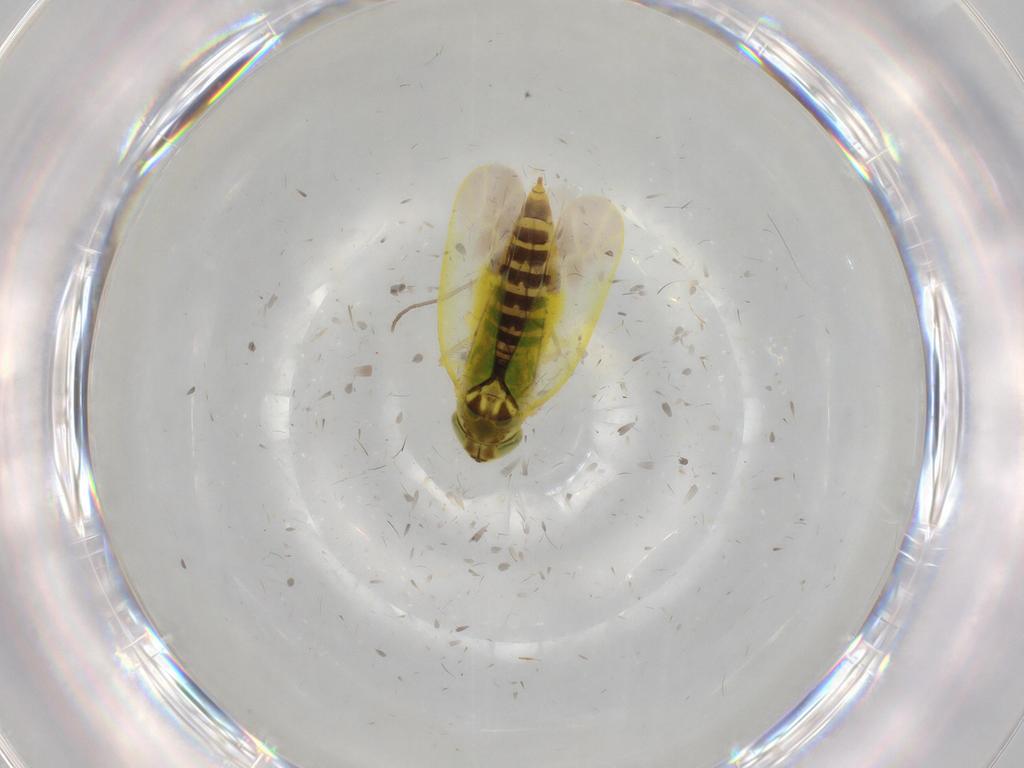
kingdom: Animalia
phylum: Arthropoda
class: Insecta
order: Hemiptera
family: Cicadellidae
